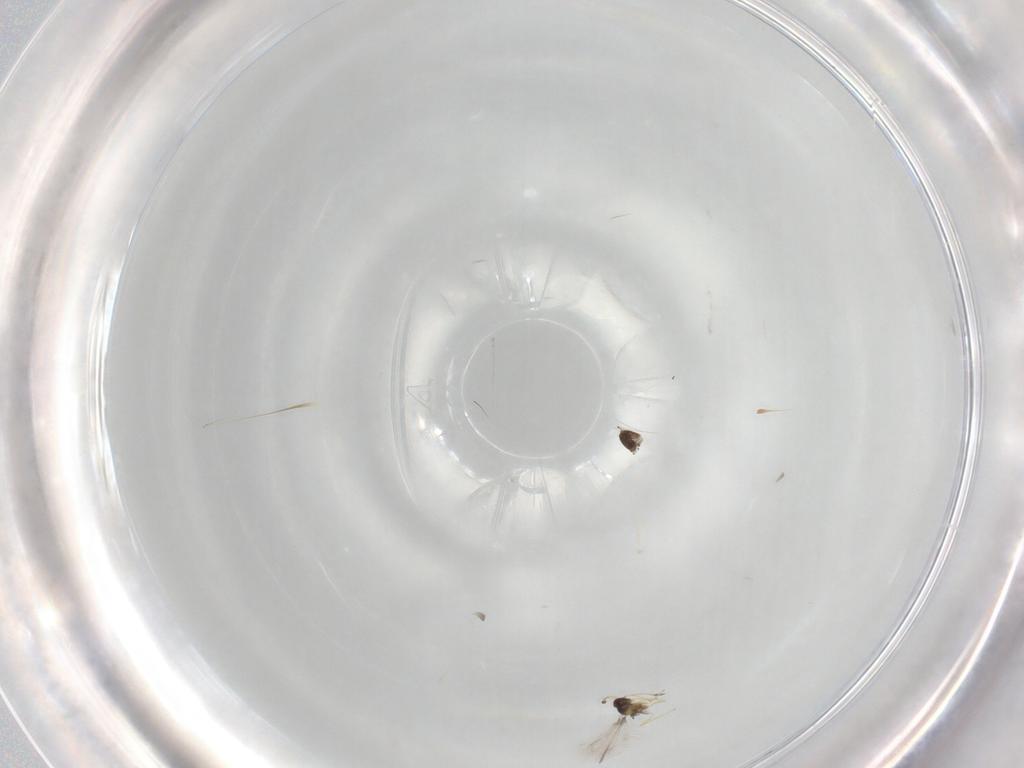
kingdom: Animalia
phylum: Arthropoda
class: Insecta
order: Hymenoptera
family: Mymaridae
